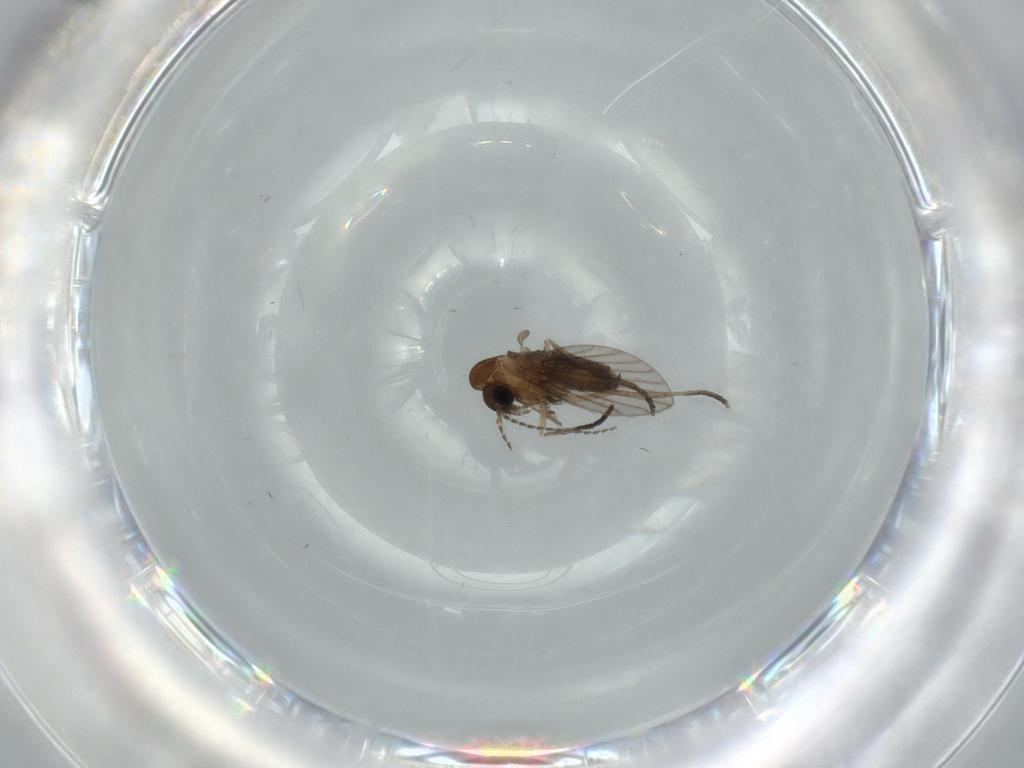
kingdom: Animalia
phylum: Arthropoda
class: Insecta
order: Diptera
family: Psychodidae
